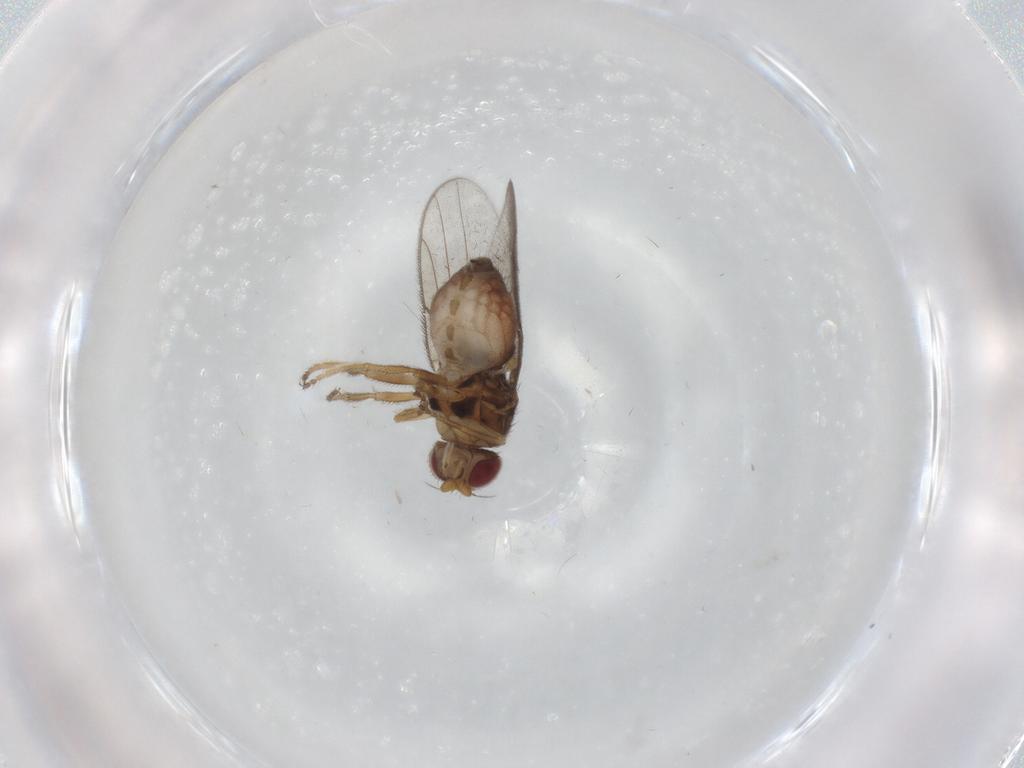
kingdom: Animalia
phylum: Arthropoda
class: Insecta
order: Diptera
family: Chloropidae
